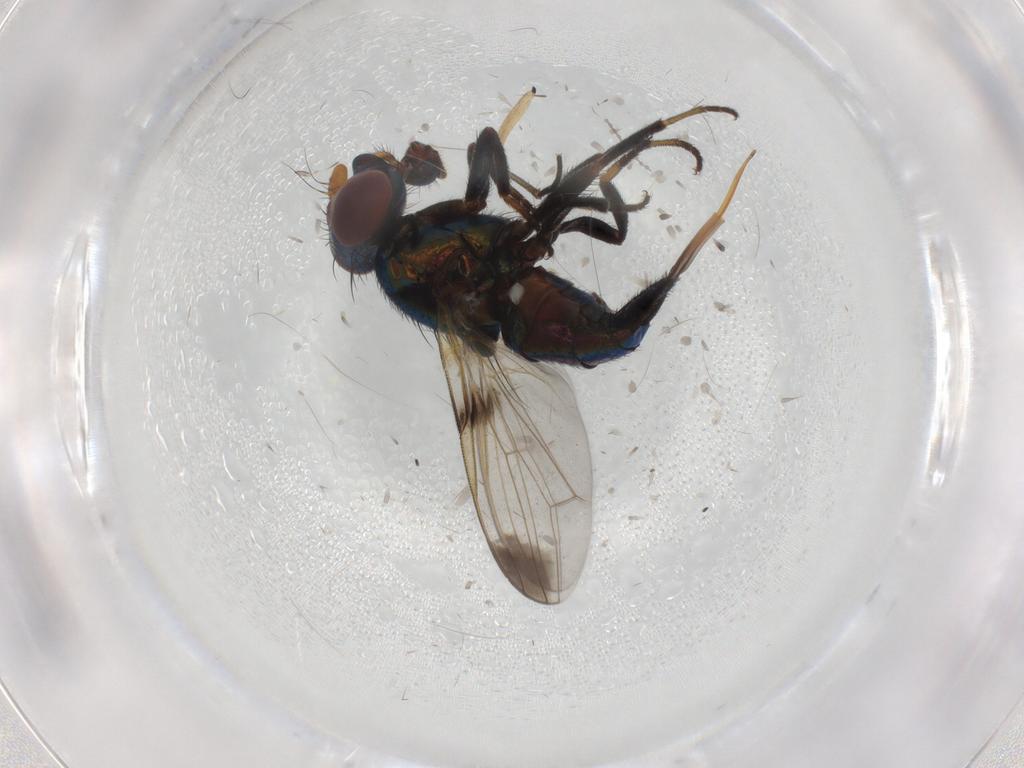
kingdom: Animalia
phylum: Arthropoda
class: Insecta
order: Diptera
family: Ulidiidae
